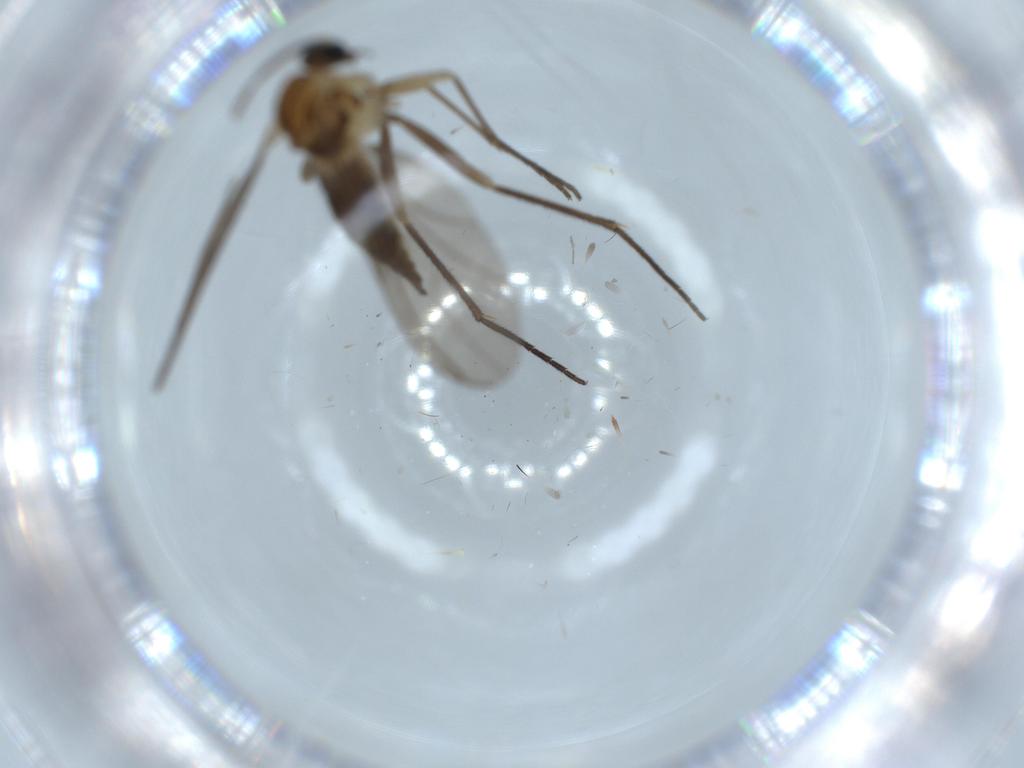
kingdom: Animalia
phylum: Arthropoda
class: Insecta
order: Diptera
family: Sciaridae
